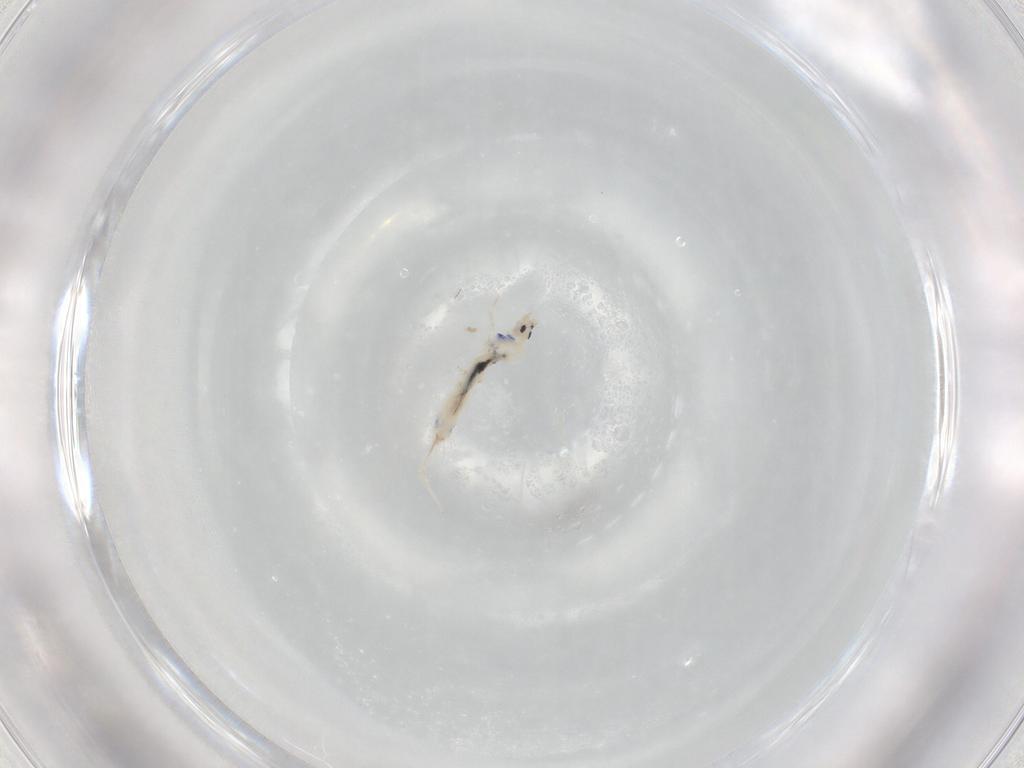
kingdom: Animalia
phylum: Arthropoda
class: Collembola
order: Entomobryomorpha
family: Entomobryidae
